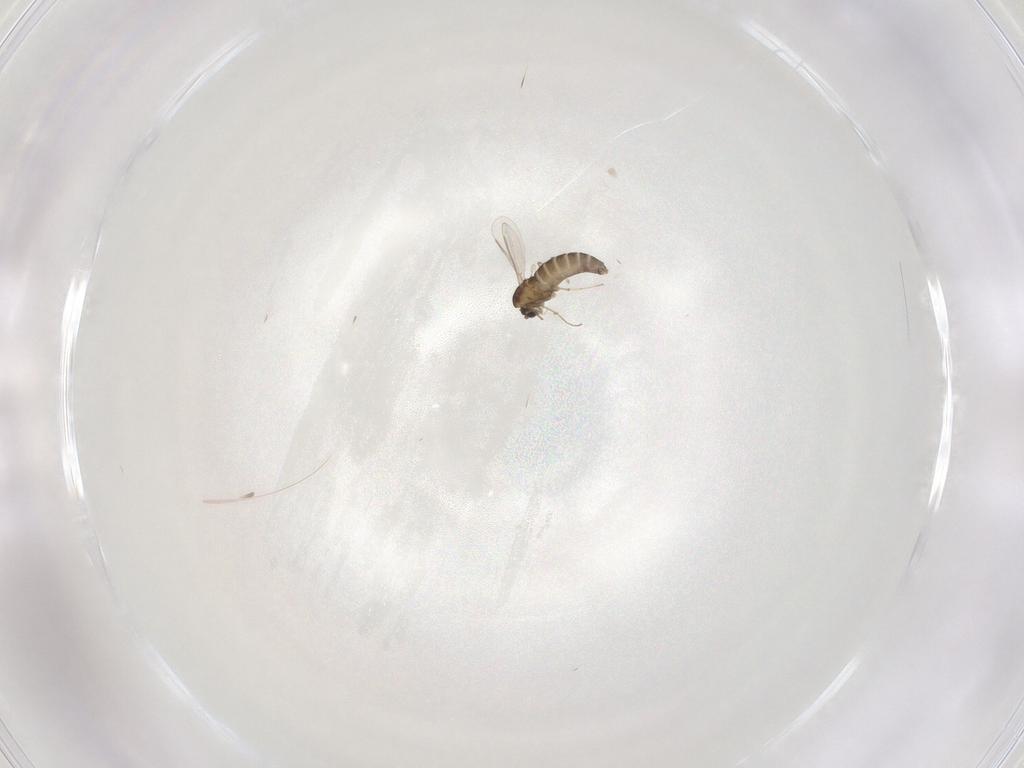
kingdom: Animalia
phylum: Arthropoda
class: Insecta
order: Diptera
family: Chironomidae
